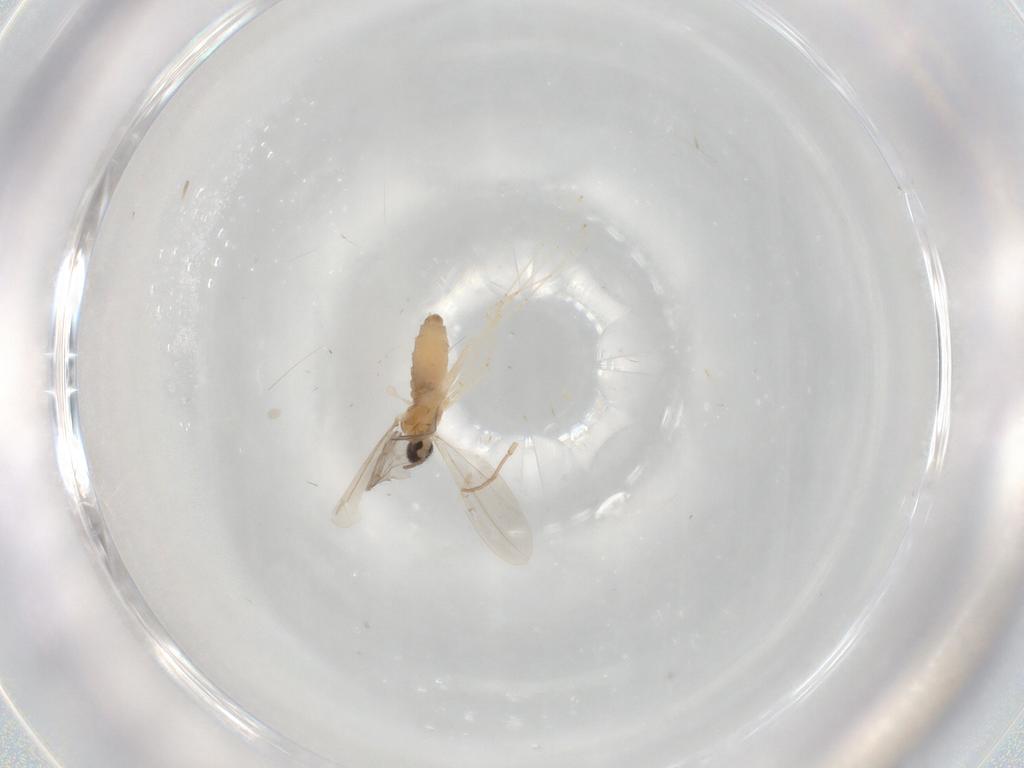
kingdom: Animalia
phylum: Arthropoda
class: Insecta
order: Diptera
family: Cecidomyiidae
